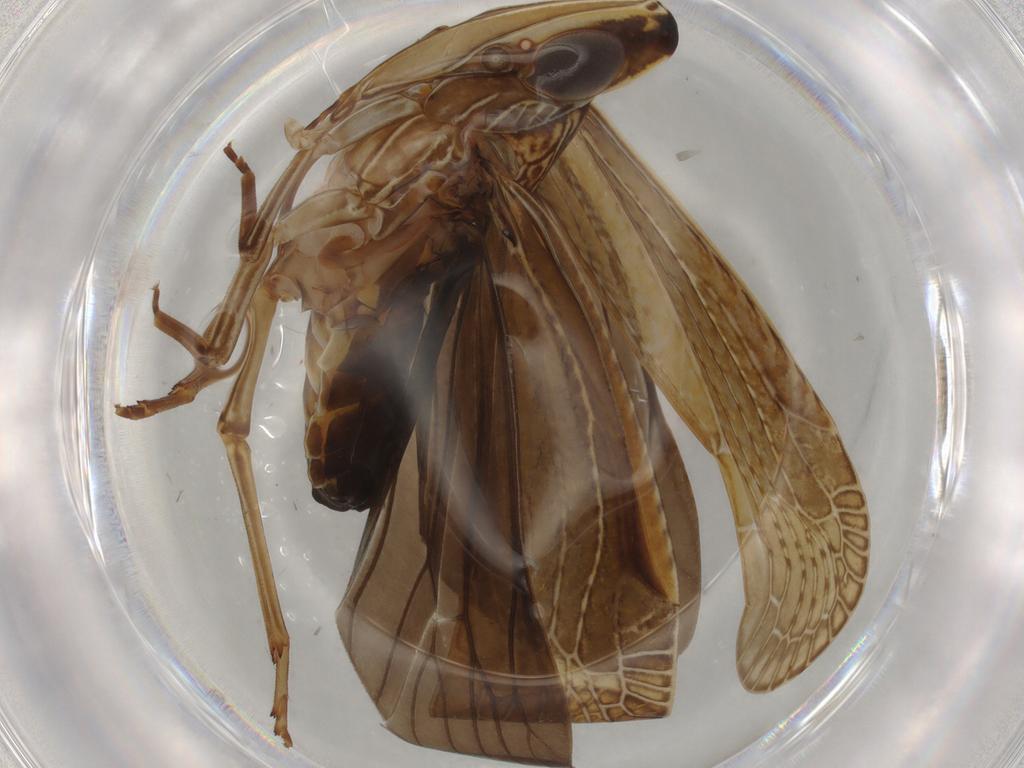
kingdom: Animalia
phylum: Arthropoda
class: Insecta
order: Hemiptera
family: Achilidae
